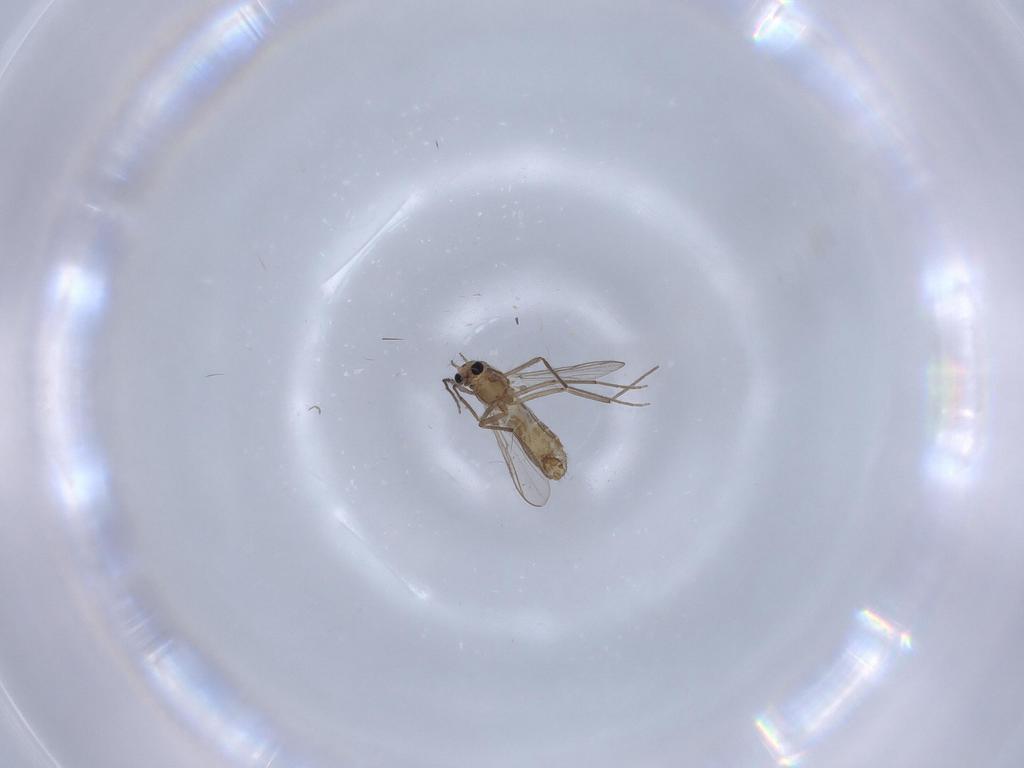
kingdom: Animalia
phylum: Arthropoda
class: Insecta
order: Diptera
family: Chironomidae
